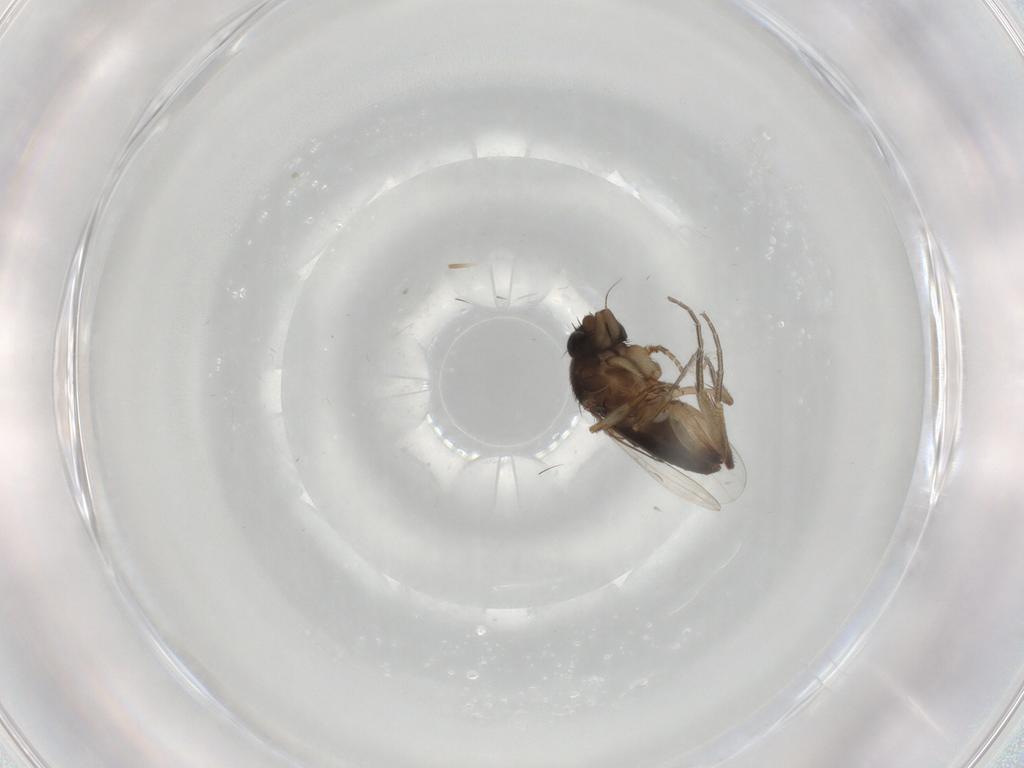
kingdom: Animalia
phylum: Arthropoda
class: Insecta
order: Diptera
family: Phoridae
